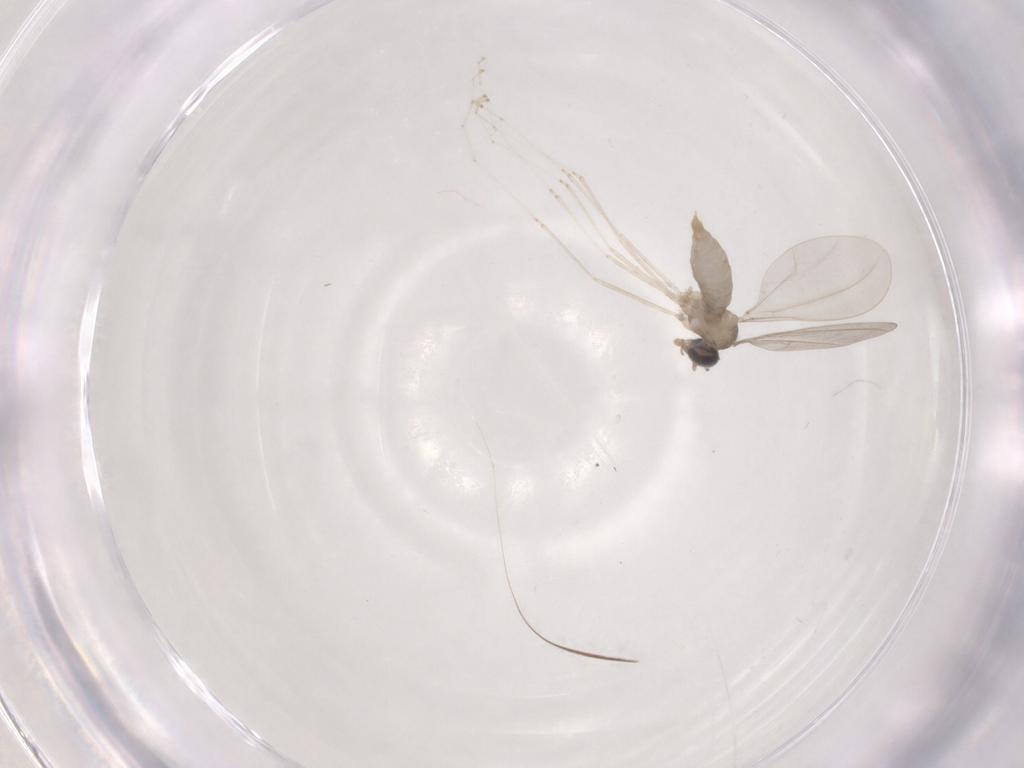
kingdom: Animalia
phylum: Arthropoda
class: Insecta
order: Diptera
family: Cecidomyiidae
